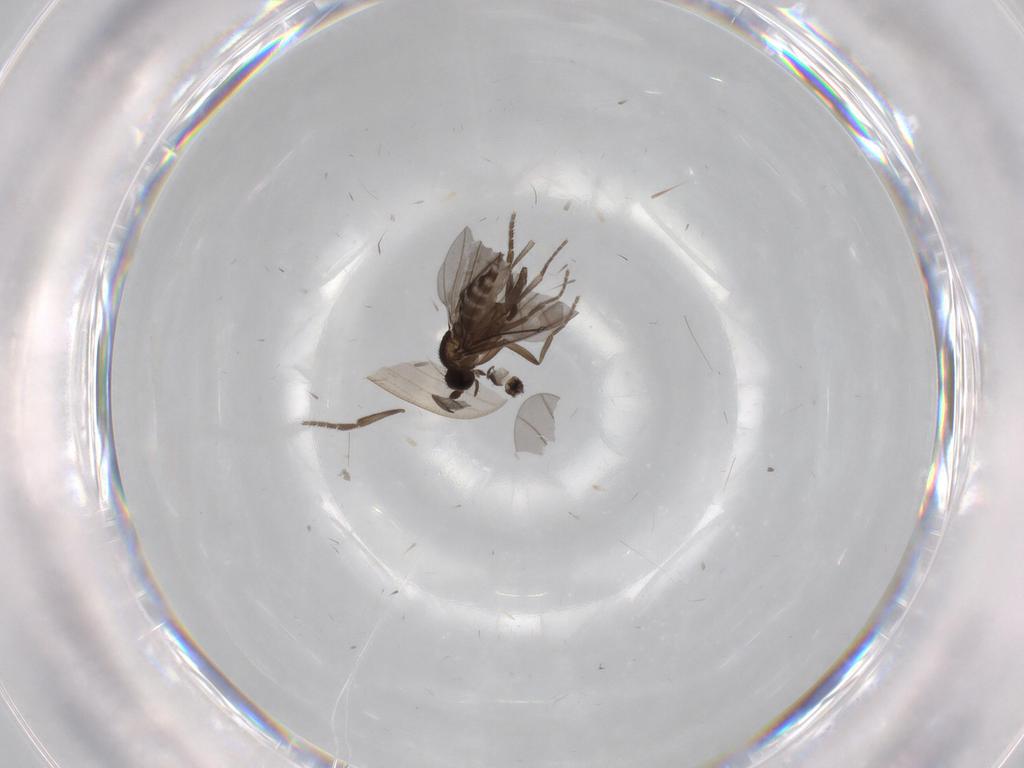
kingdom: Animalia
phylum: Arthropoda
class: Insecta
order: Diptera
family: Phoridae
